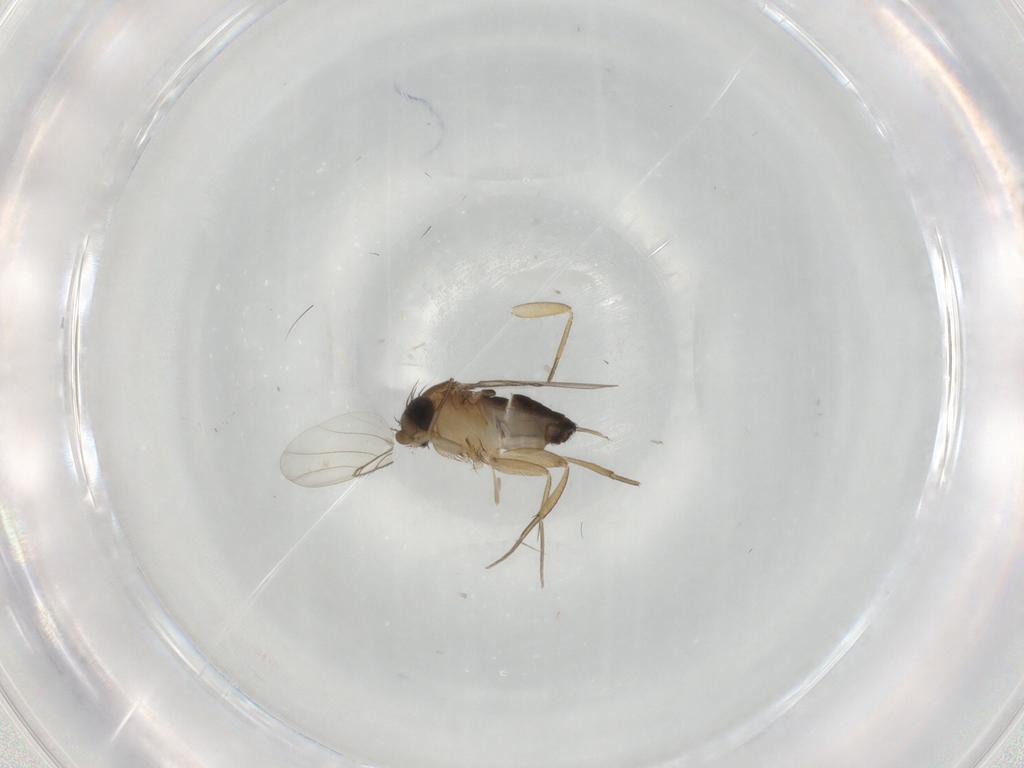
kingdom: Animalia
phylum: Arthropoda
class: Insecta
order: Diptera
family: Phoridae
